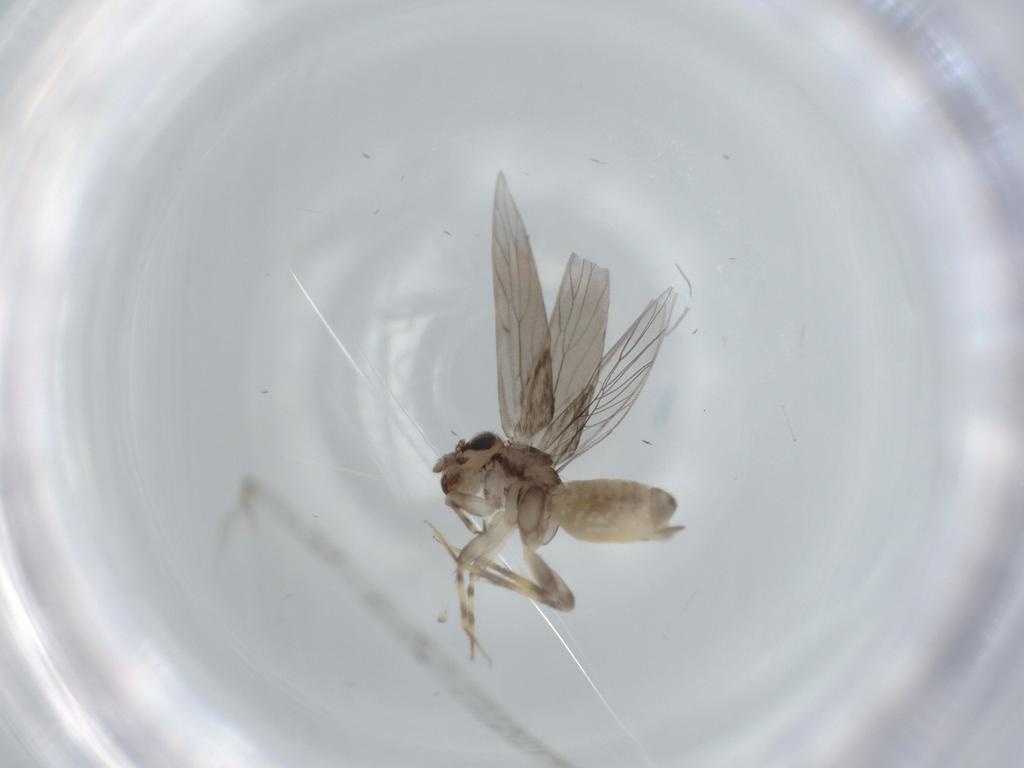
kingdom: Animalia
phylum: Arthropoda
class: Insecta
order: Psocodea
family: Lepidopsocidae
